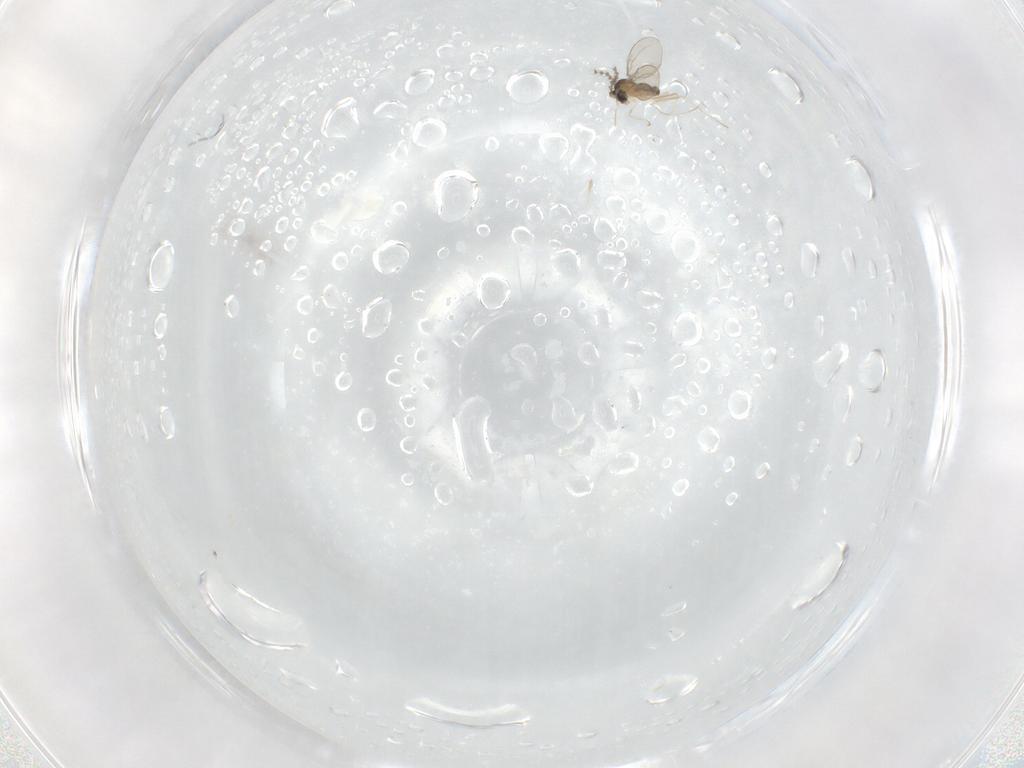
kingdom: Animalia
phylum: Arthropoda
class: Insecta
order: Diptera
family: Cecidomyiidae
